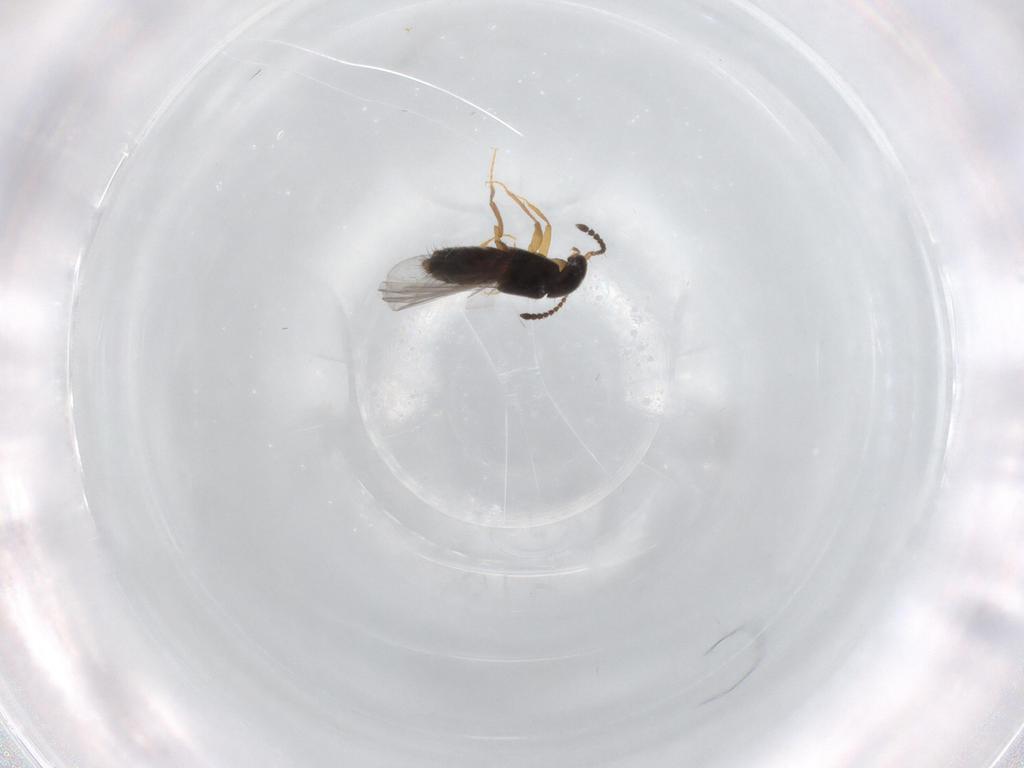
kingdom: Animalia
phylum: Arthropoda
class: Insecta
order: Coleoptera
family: Staphylinidae
